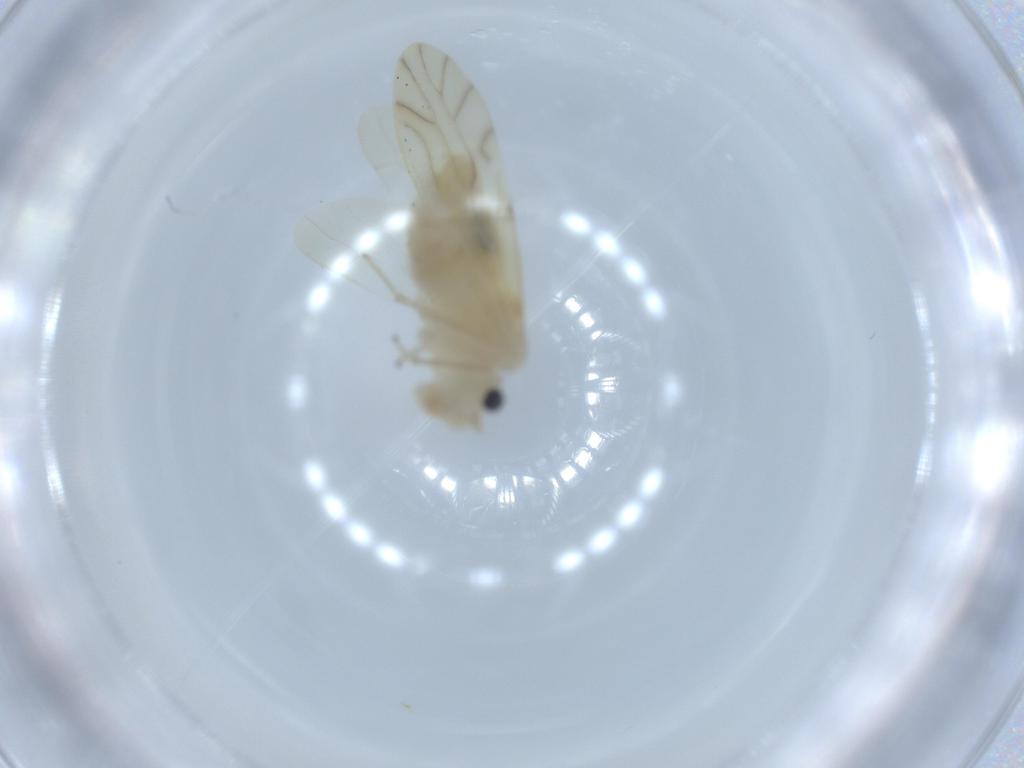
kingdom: Animalia
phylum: Arthropoda
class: Insecta
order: Psocodea
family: Caeciliusidae
